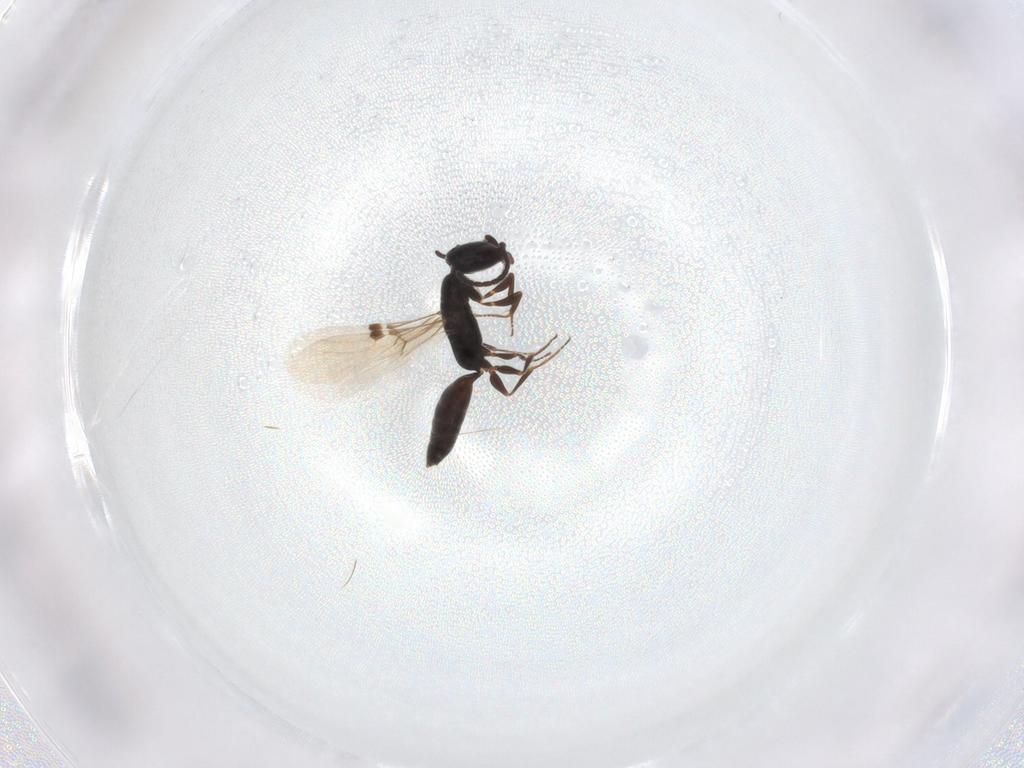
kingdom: Animalia
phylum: Arthropoda
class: Insecta
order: Hymenoptera
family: Bethylidae
